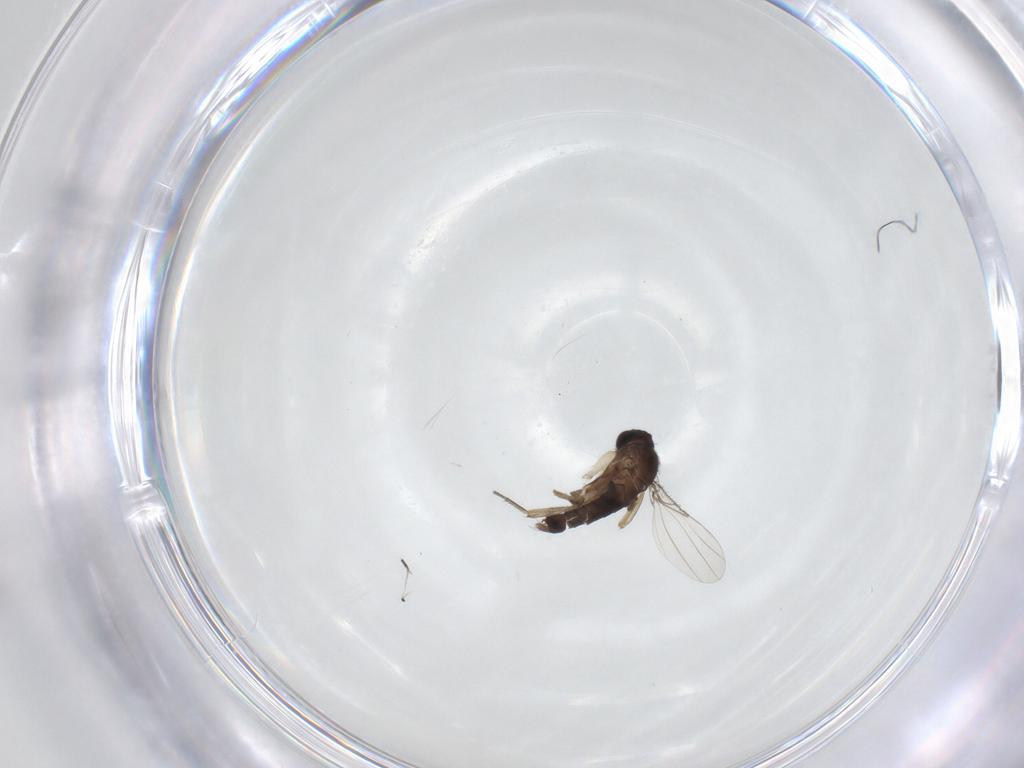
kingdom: Animalia
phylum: Arthropoda
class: Insecta
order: Diptera
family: Phoridae
